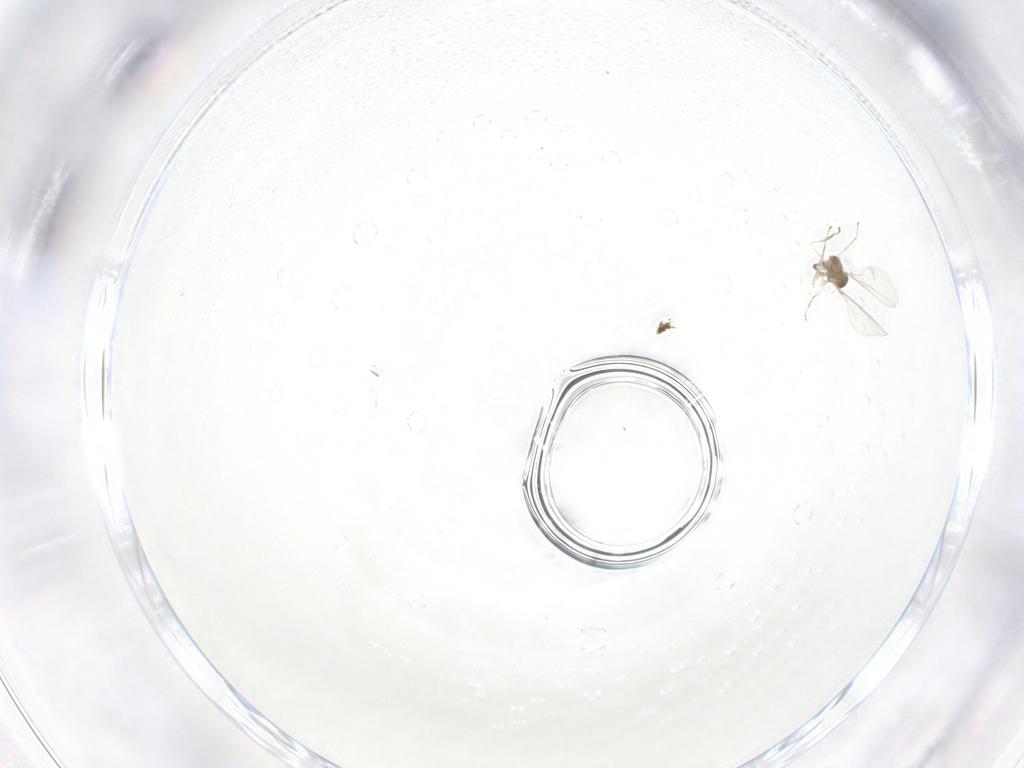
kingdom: Animalia
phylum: Arthropoda
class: Insecta
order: Diptera
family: Cecidomyiidae
